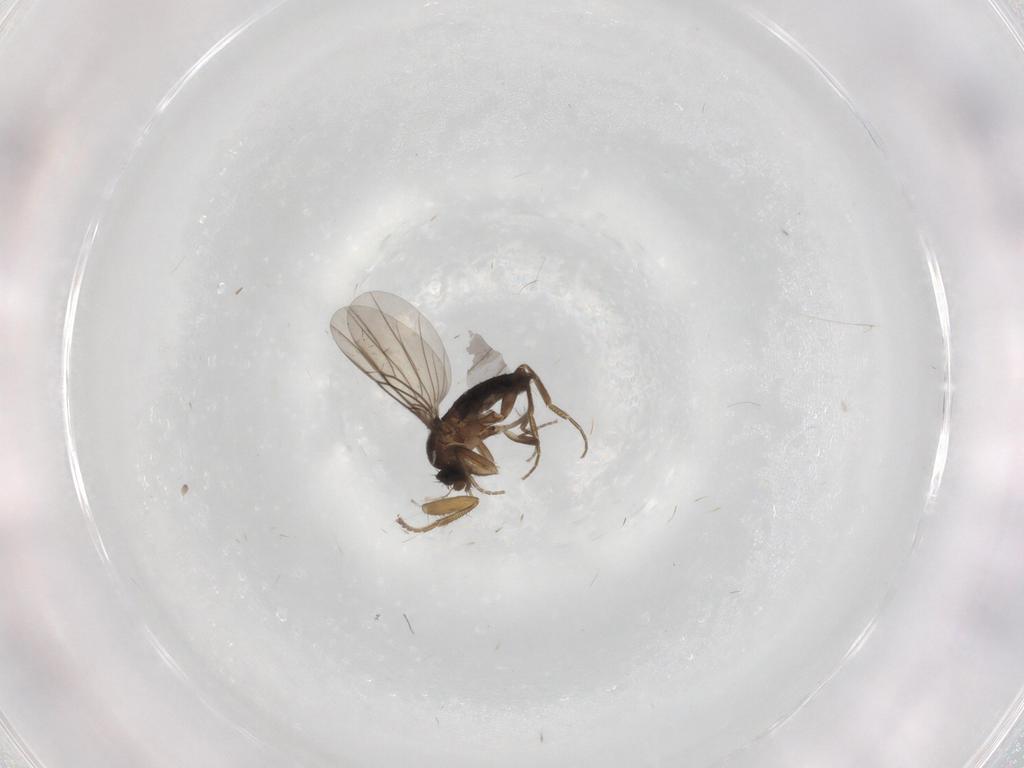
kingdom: Animalia
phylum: Arthropoda
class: Insecta
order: Diptera
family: Phoridae
